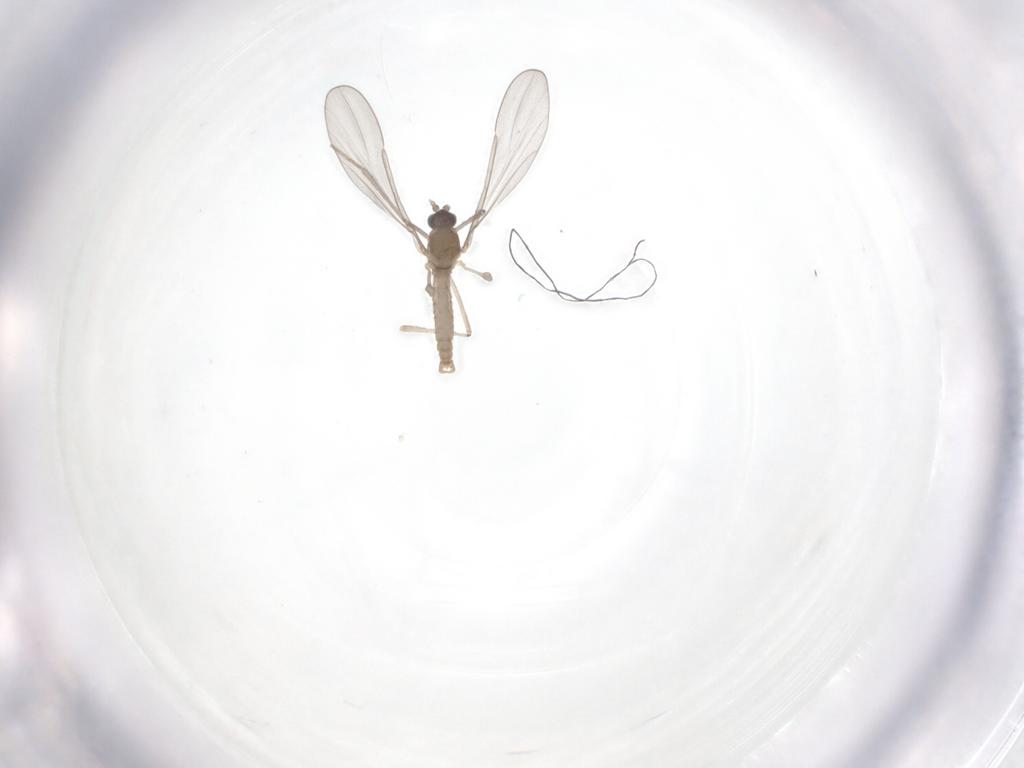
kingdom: Animalia
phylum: Arthropoda
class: Insecta
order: Diptera
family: Cecidomyiidae
